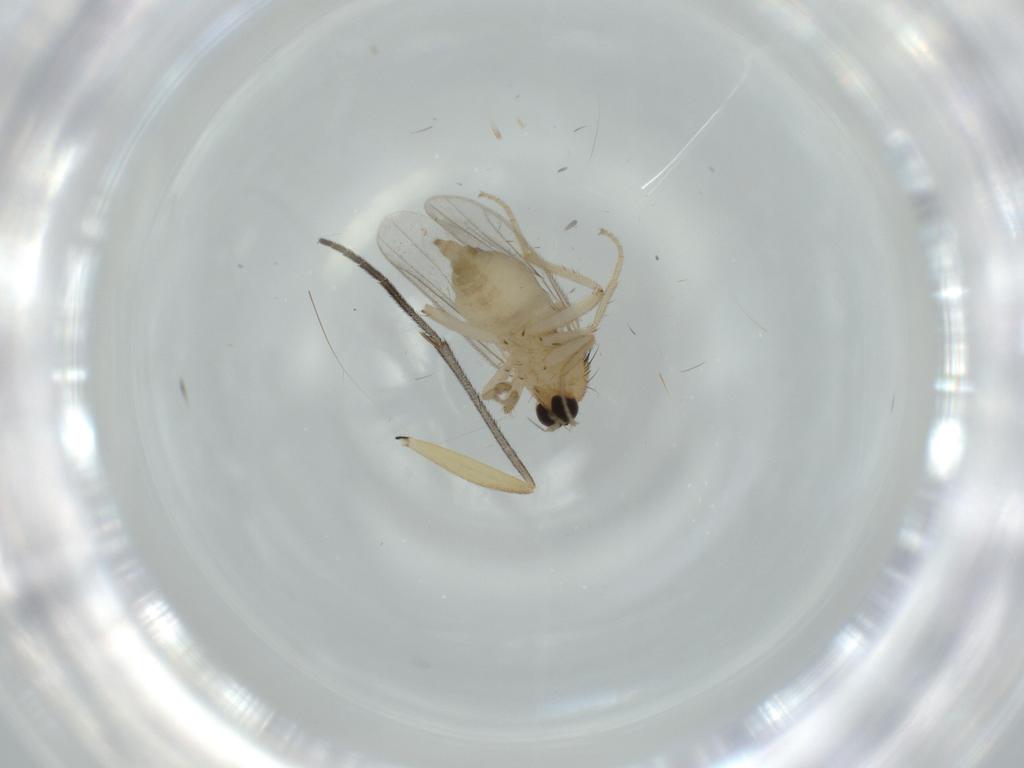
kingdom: Animalia
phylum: Arthropoda
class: Insecta
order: Diptera
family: Hybotidae
